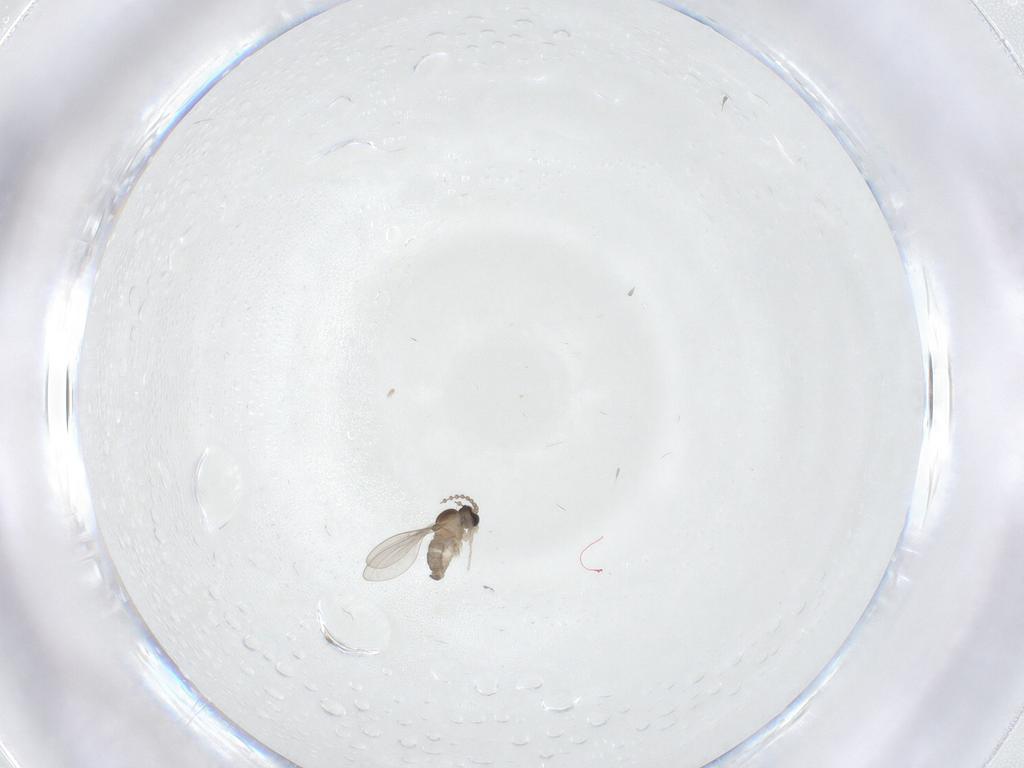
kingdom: Animalia
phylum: Arthropoda
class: Insecta
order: Diptera
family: Cecidomyiidae
